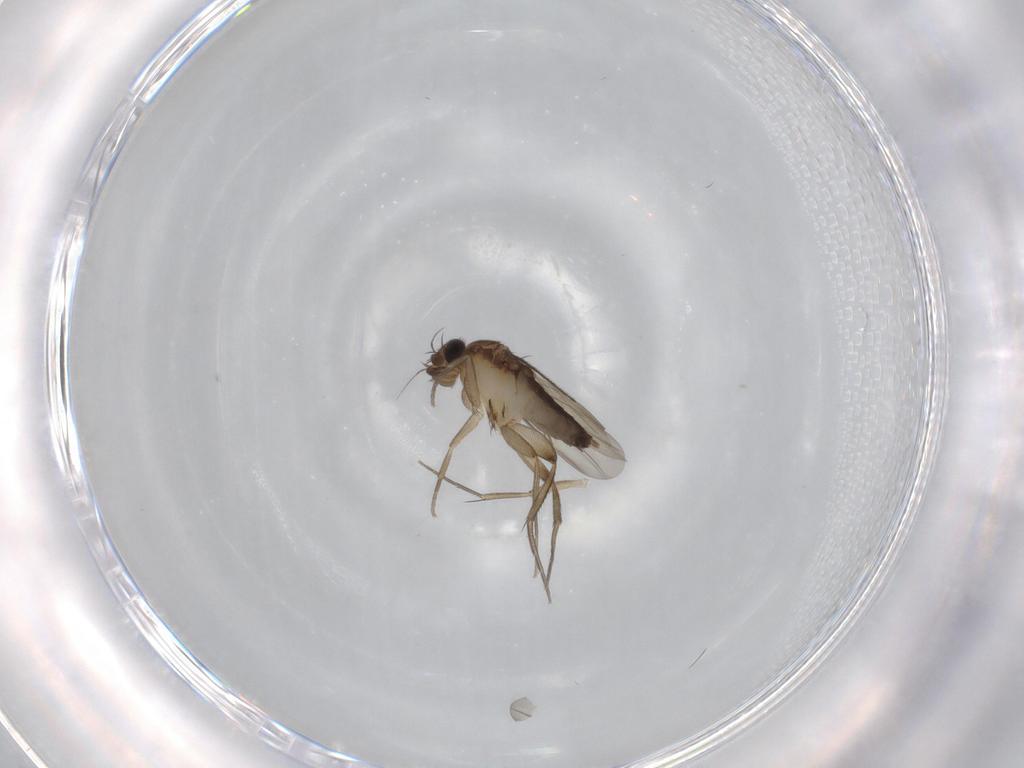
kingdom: Animalia
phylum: Arthropoda
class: Insecta
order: Diptera
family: Phoridae
